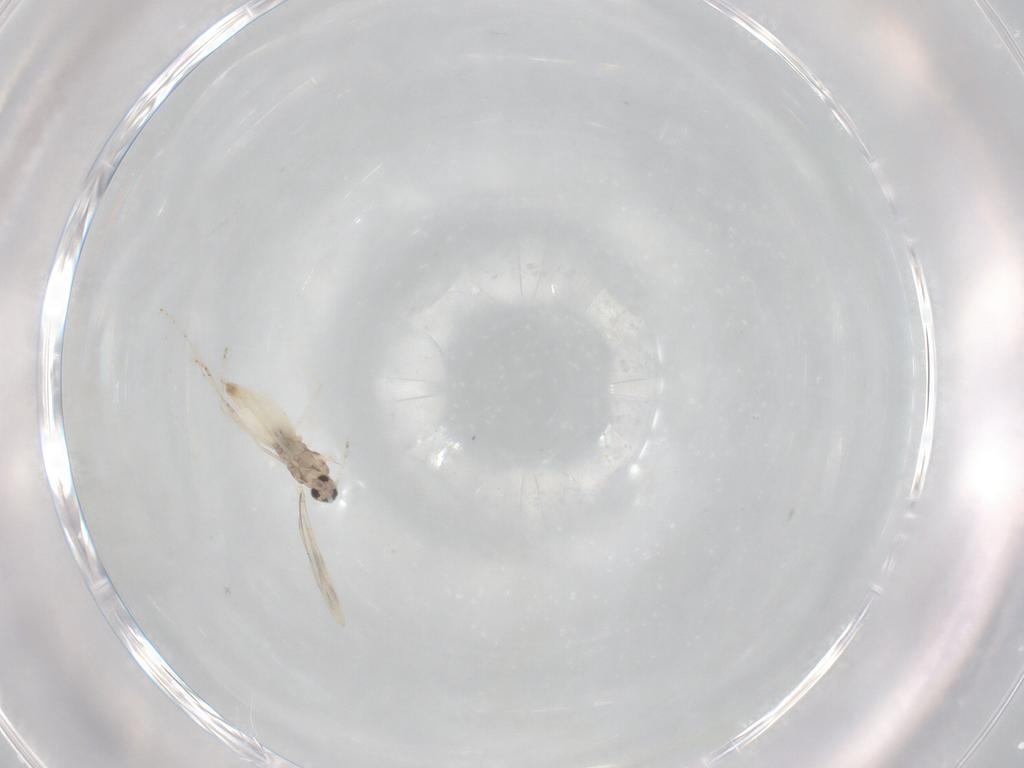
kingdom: Animalia
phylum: Arthropoda
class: Insecta
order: Diptera
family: Cecidomyiidae
